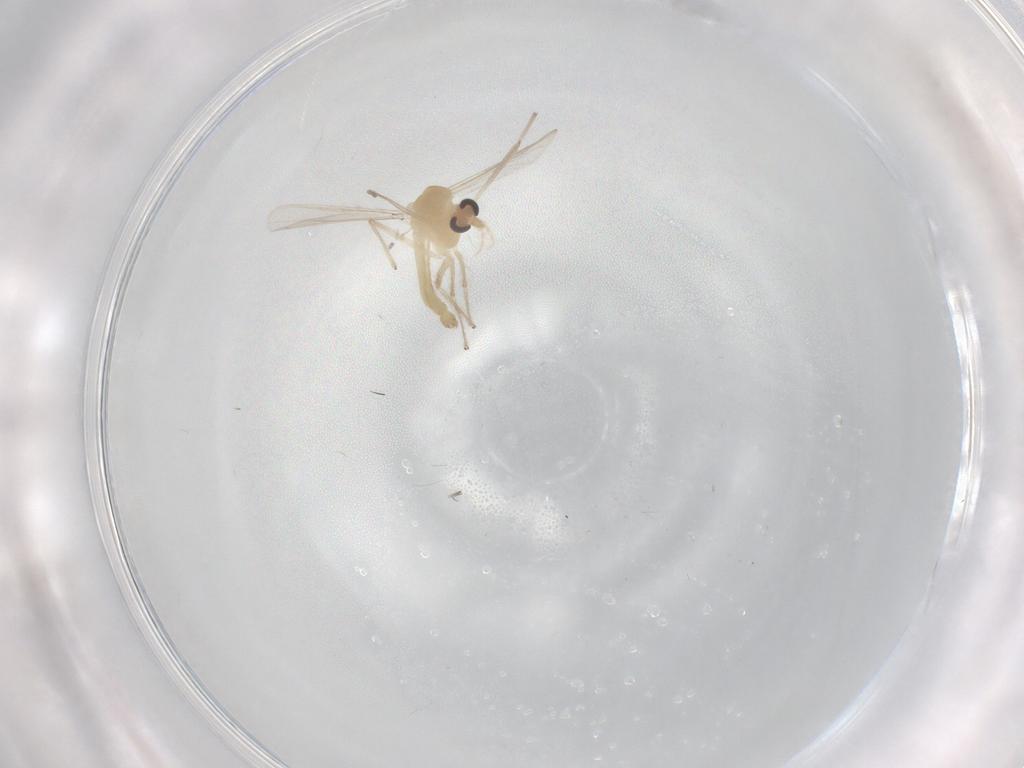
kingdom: Animalia
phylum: Arthropoda
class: Insecta
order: Diptera
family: Chironomidae
